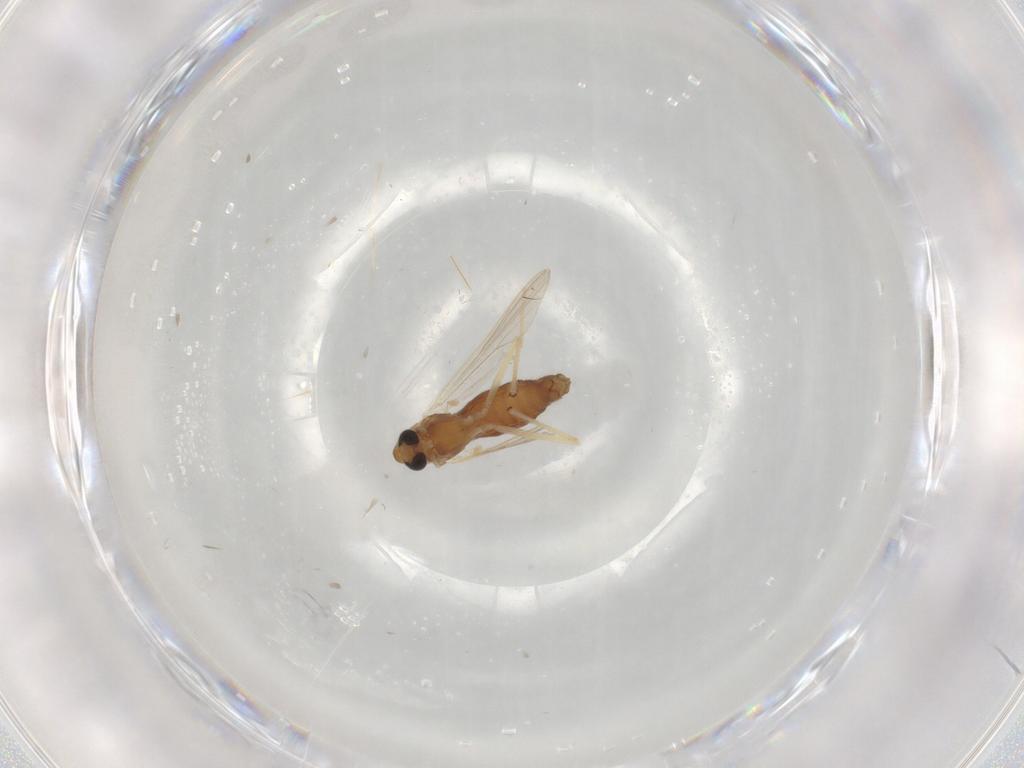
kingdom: Animalia
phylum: Arthropoda
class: Insecta
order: Diptera
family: Chironomidae
